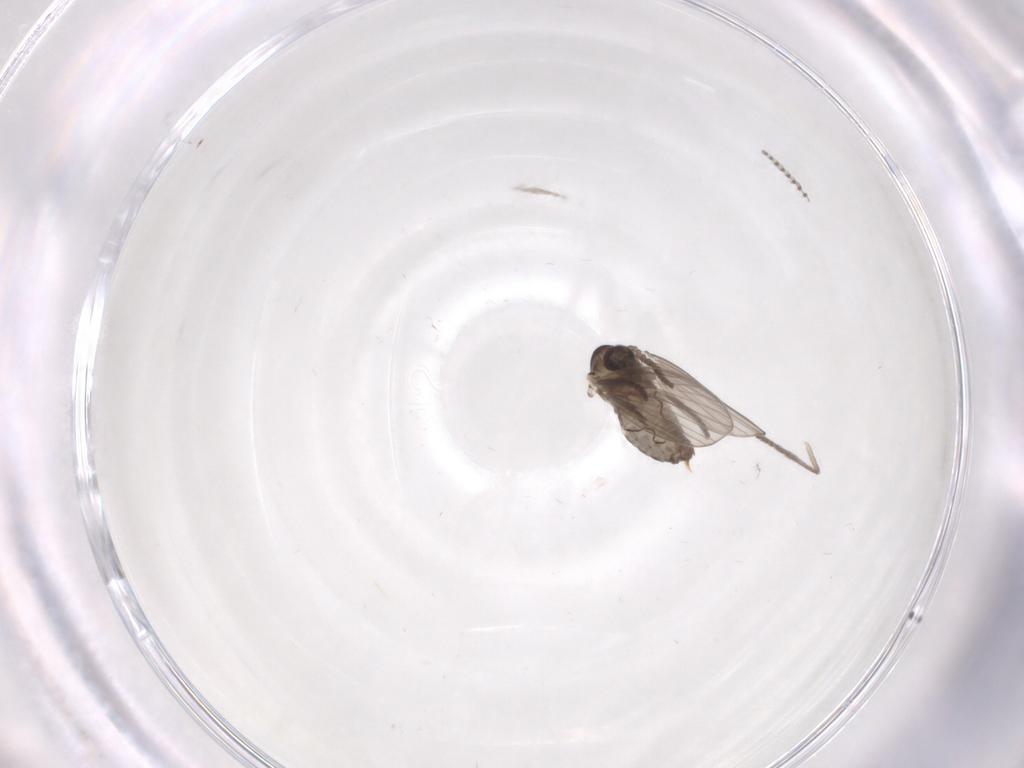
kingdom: Animalia
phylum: Arthropoda
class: Insecta
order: Diptera
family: Psychodidae
